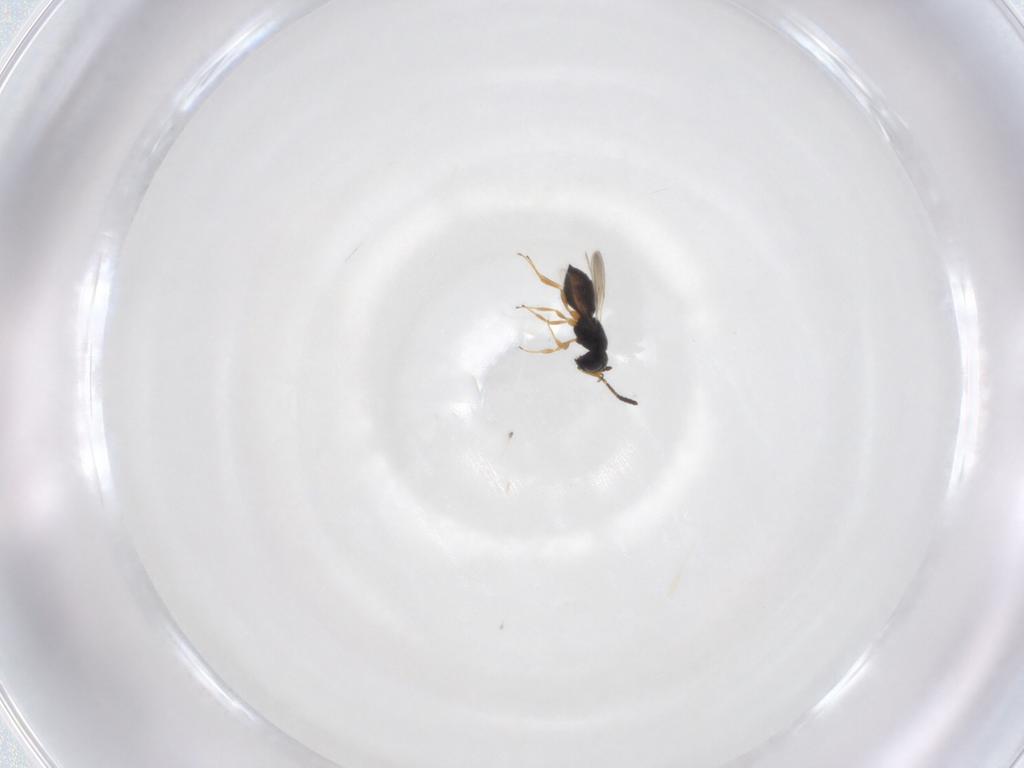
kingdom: Animalia
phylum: Arthropoda
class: Insecta
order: Hymenoptera
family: Scelionidae
